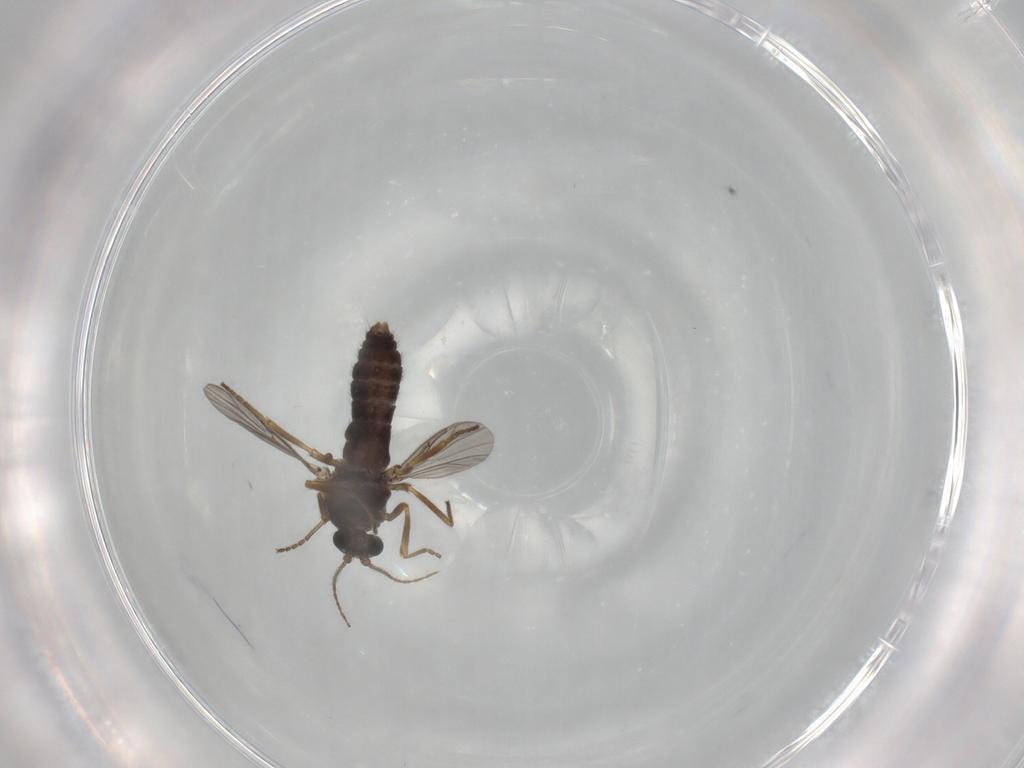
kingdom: Animalia
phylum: Arthropoda
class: Insecta
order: Diptera
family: Ceratopogonidae
